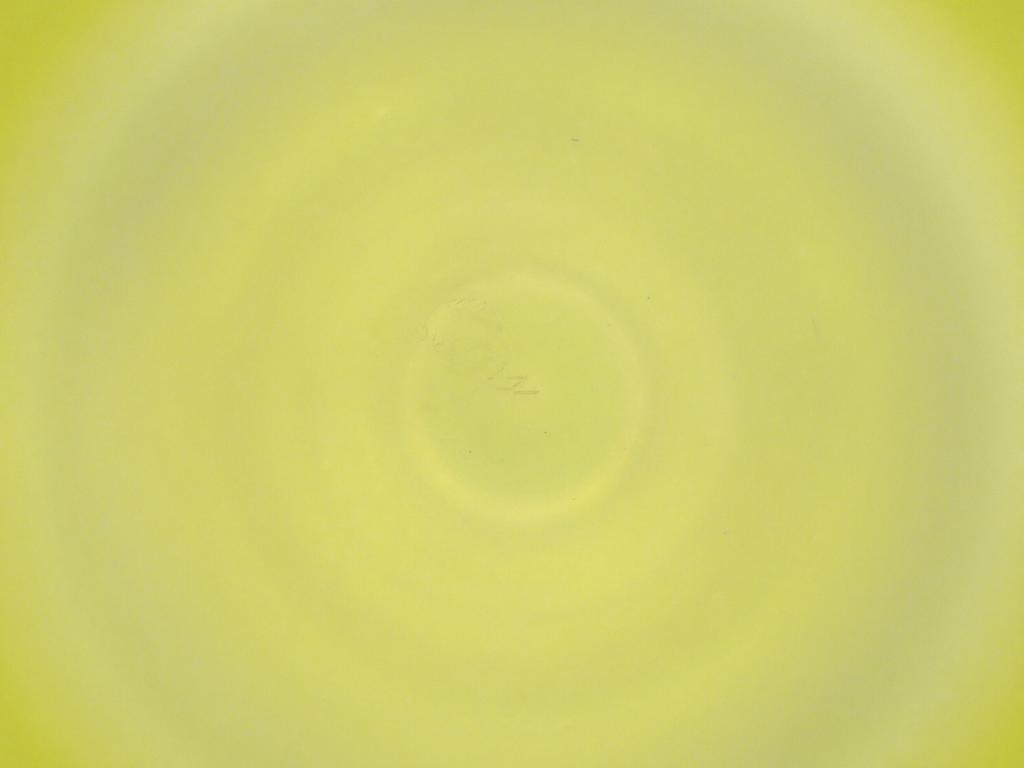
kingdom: Animalia
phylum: Arthropoda
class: Insecta
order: Diptera
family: Cecidomyiidae
